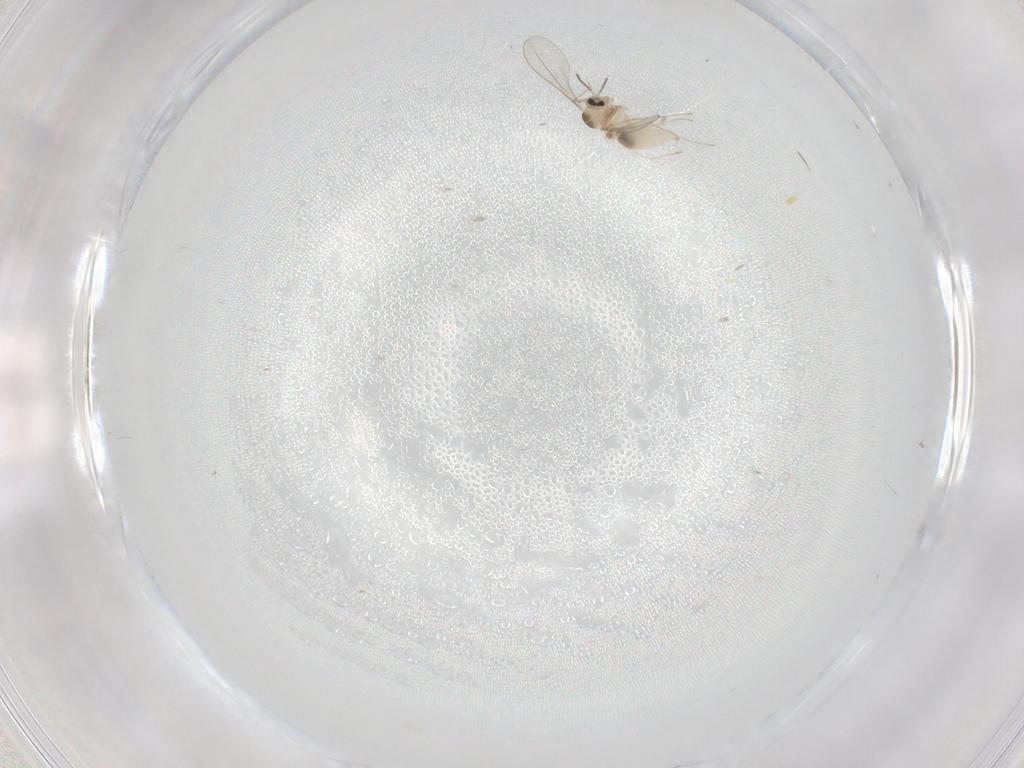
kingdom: Animalia
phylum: Arthropoda
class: Insecta
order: Diptera
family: Cecidomyiidae
